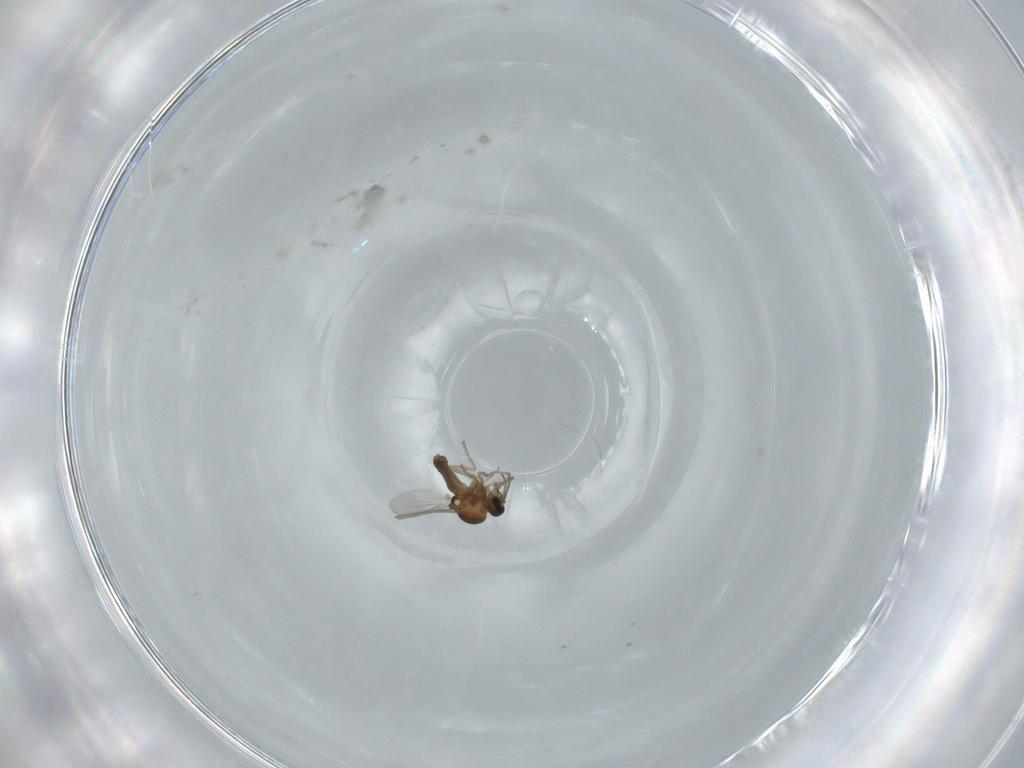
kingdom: Animalia
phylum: Arthropoda
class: Insecta
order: Diptera
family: Ceratopogonidae
